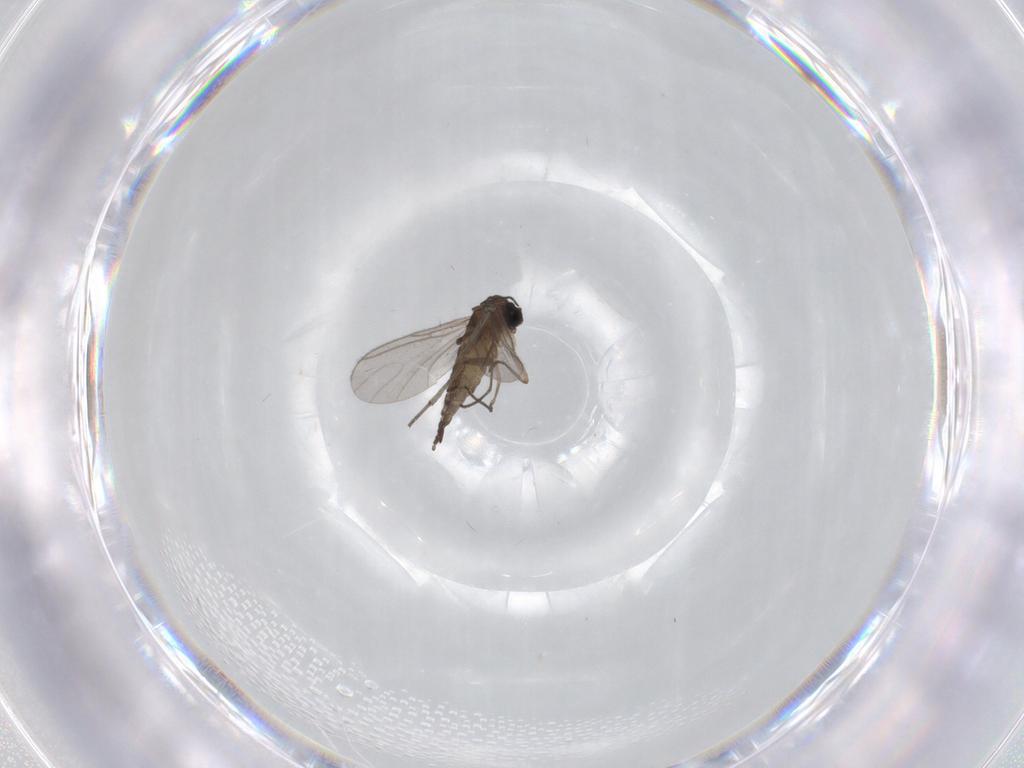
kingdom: Animalia
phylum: Arthropoda
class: Insecta
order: Diptera
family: Sciaridae
